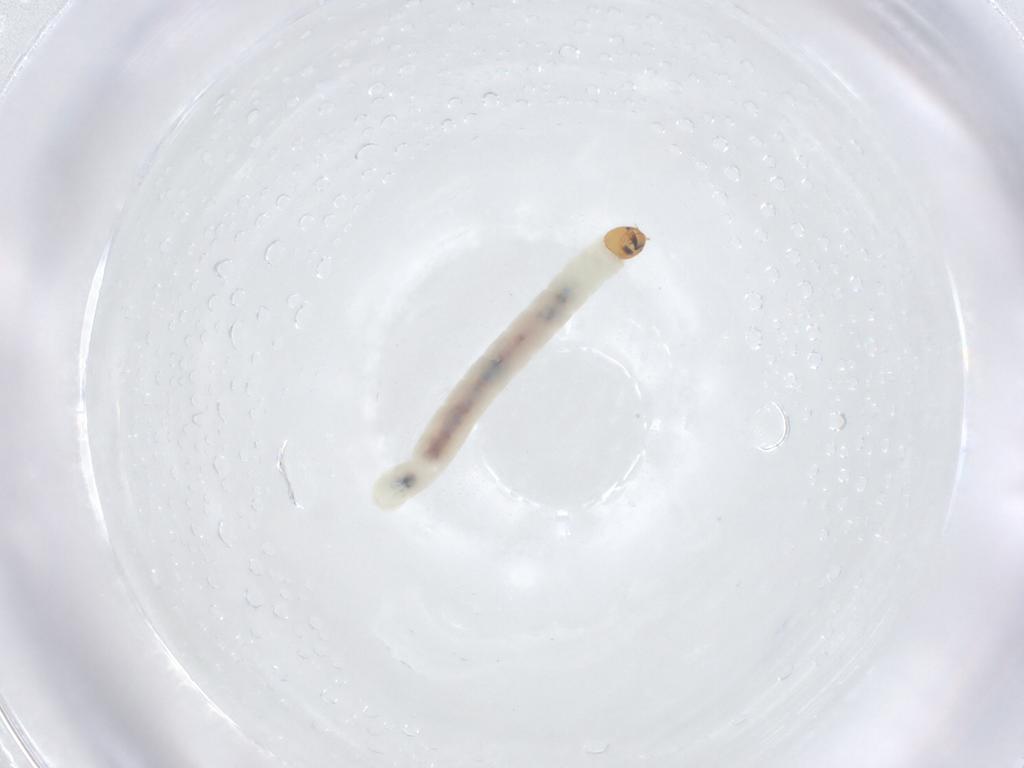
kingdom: Animalia
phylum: Arthropoda
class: Insecta
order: Diptera
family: Chironomidae
